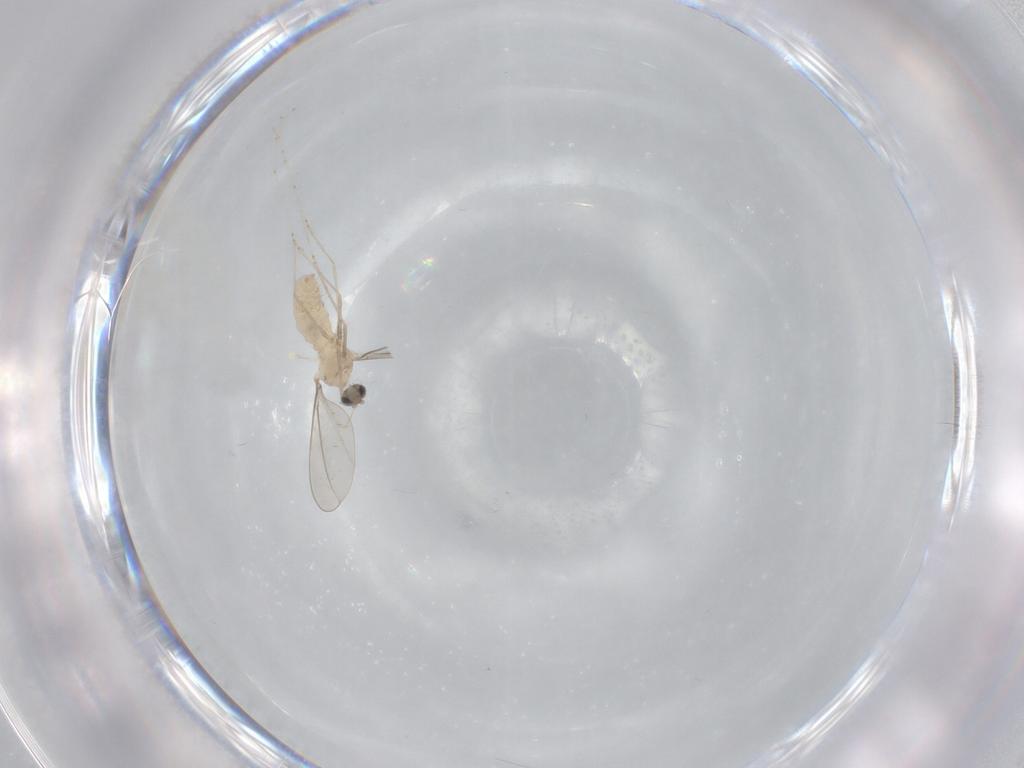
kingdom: Animalia
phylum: Arthropoda
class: Insecta
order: Diptera
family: Cecidomyiidae
